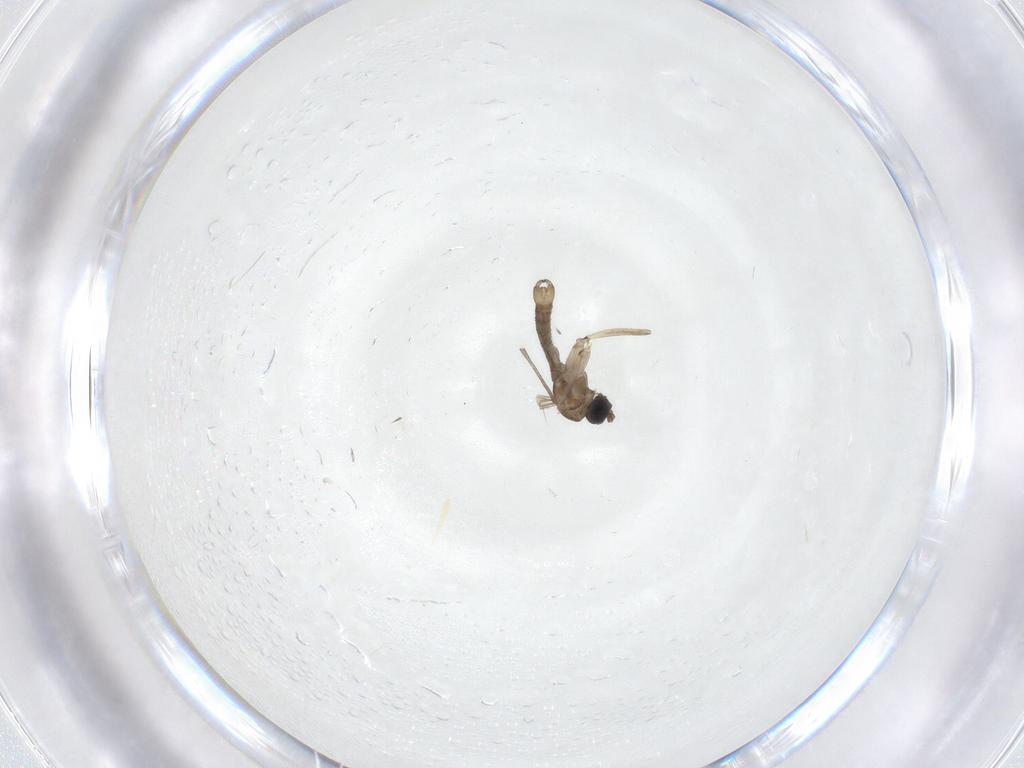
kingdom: Animalia
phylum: Arthropoda
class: Insecta
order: Diptera
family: Sciaridae
